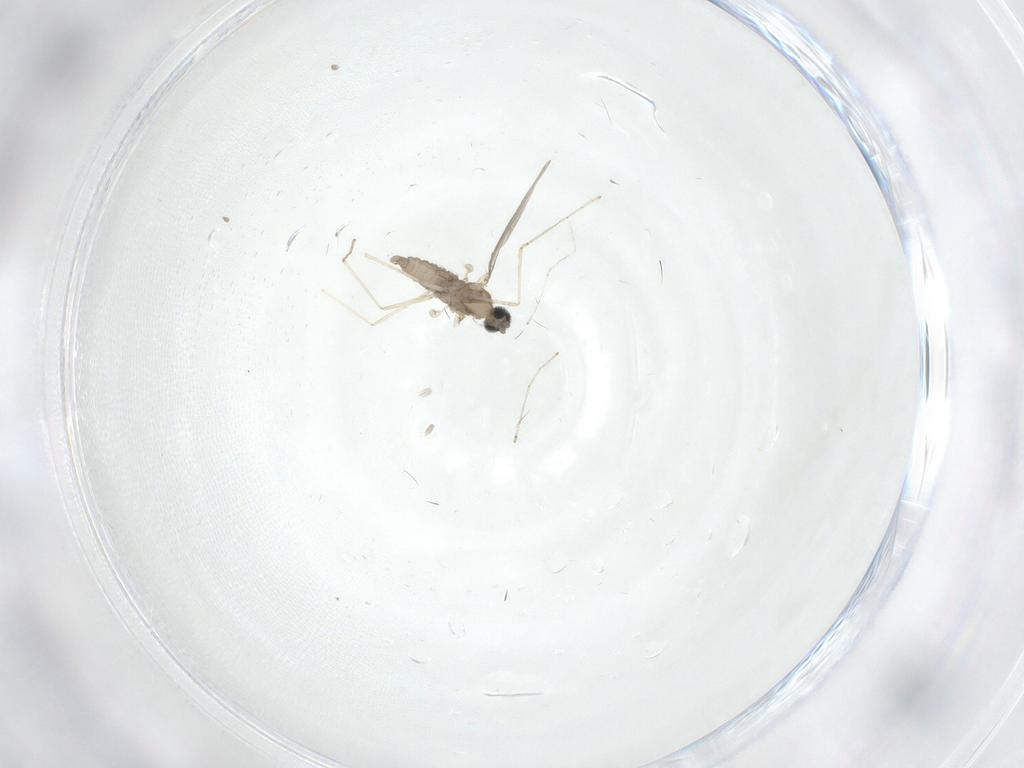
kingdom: Animalia
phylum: Arthropoda
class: Insecta
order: Diptera
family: Cecidomyiidae
